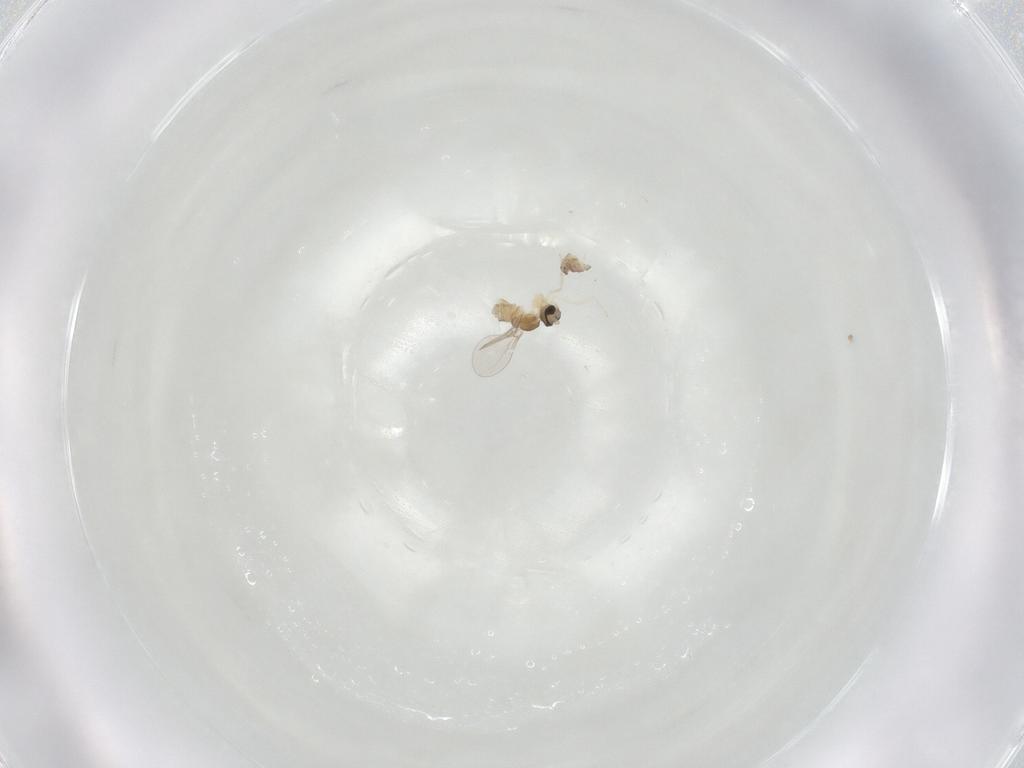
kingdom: Animalia
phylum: Arthropoda
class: Insecta
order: Diptera
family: Cecidomyiidae
